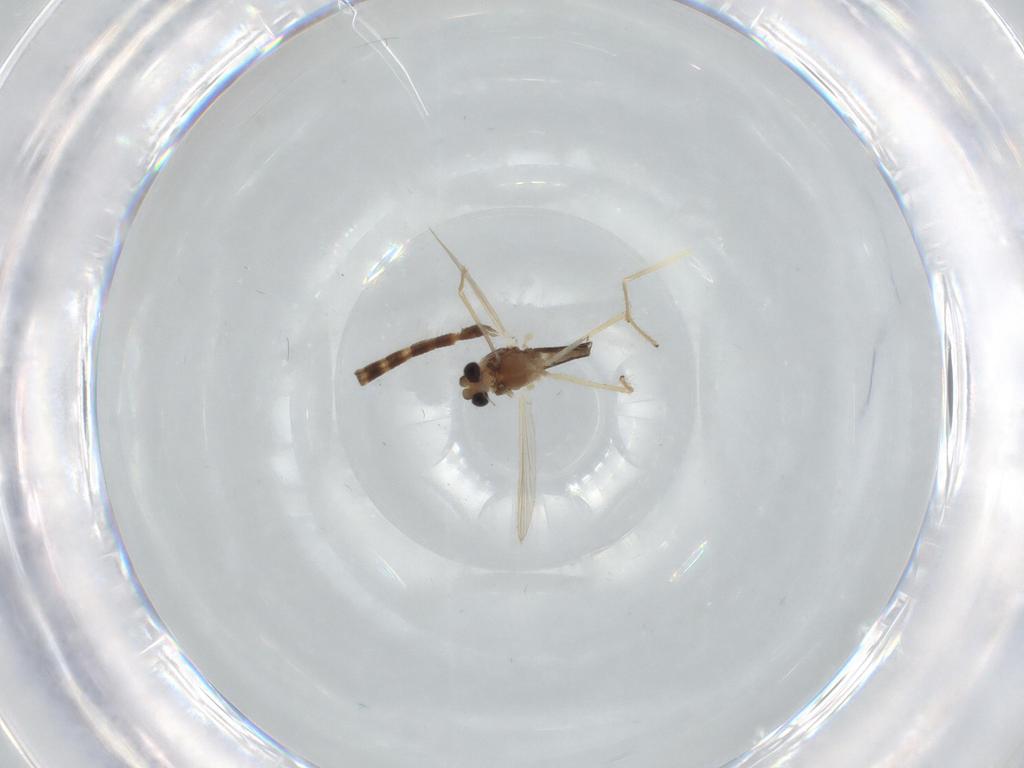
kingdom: Animalia
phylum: Arthropoda
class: Insecta
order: Diptera
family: Chironomidae
